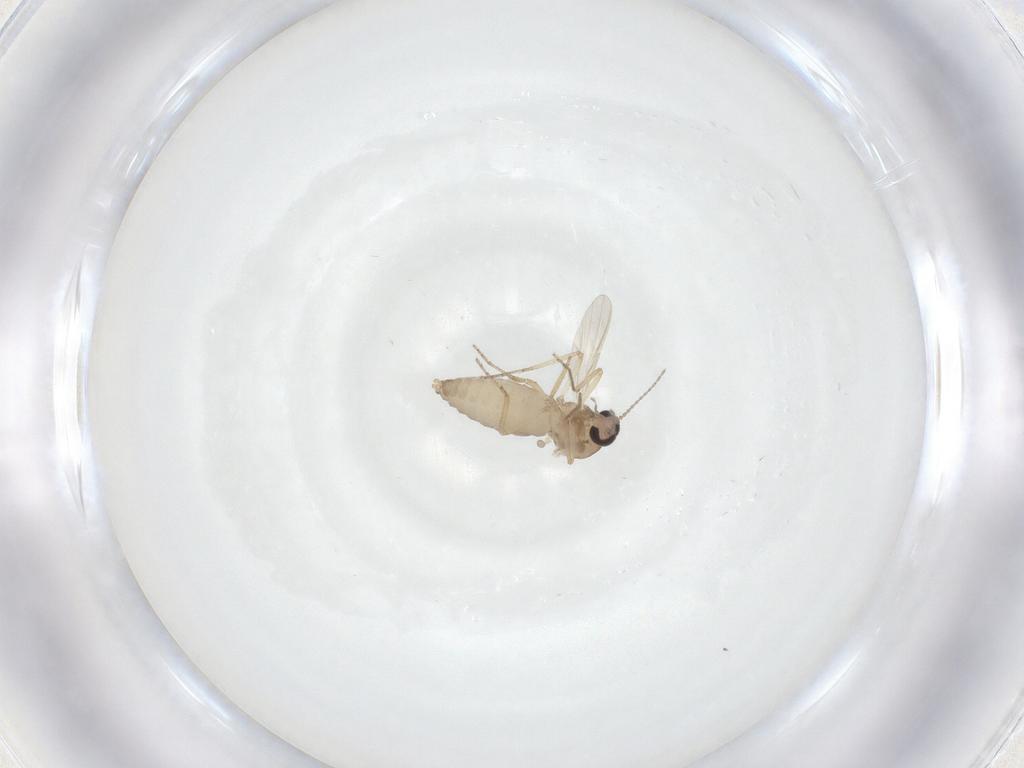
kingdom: Animalia
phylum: Arthropoda
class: Insecta
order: Diptera
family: Ceratopogonidae
